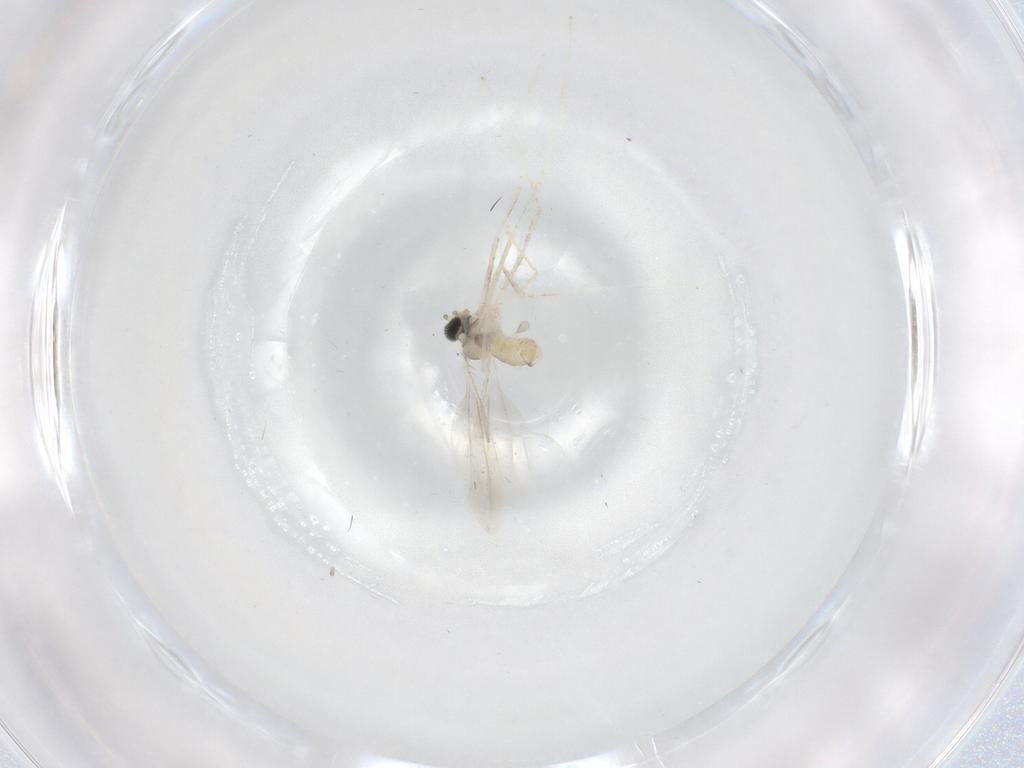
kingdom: Animalia
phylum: Arthropoda
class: Insecta
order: Diptera
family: Cecidomyiidae
